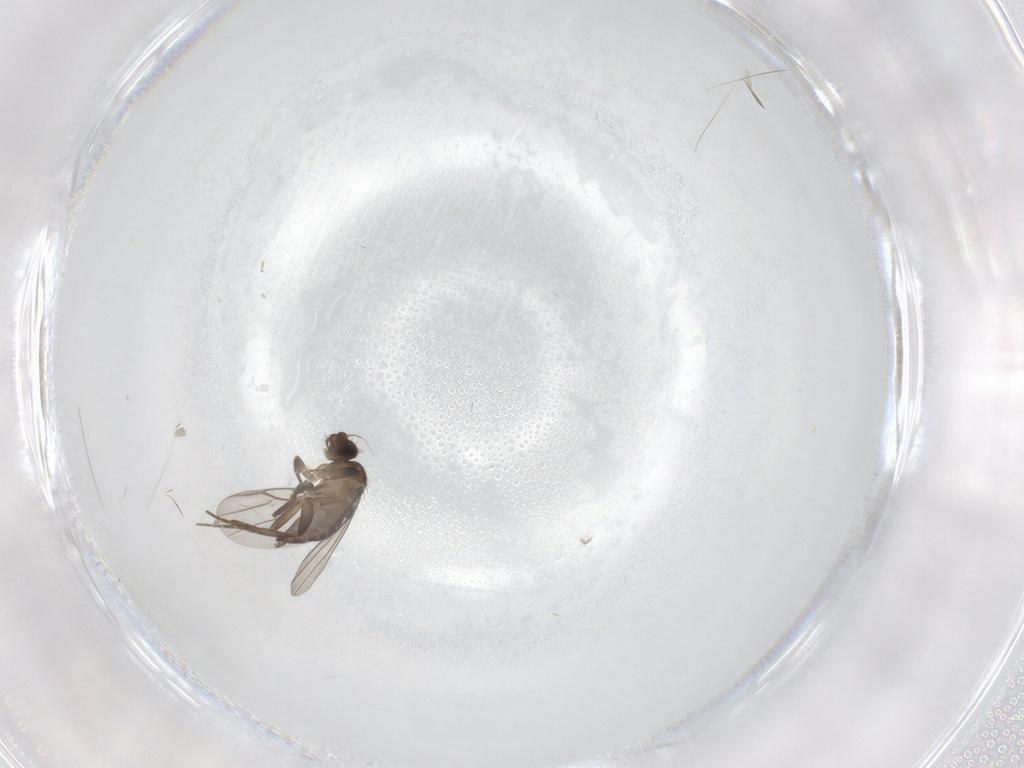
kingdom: Animalia
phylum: Arthropoda
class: Insecta
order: Diptera
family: Phoridae
